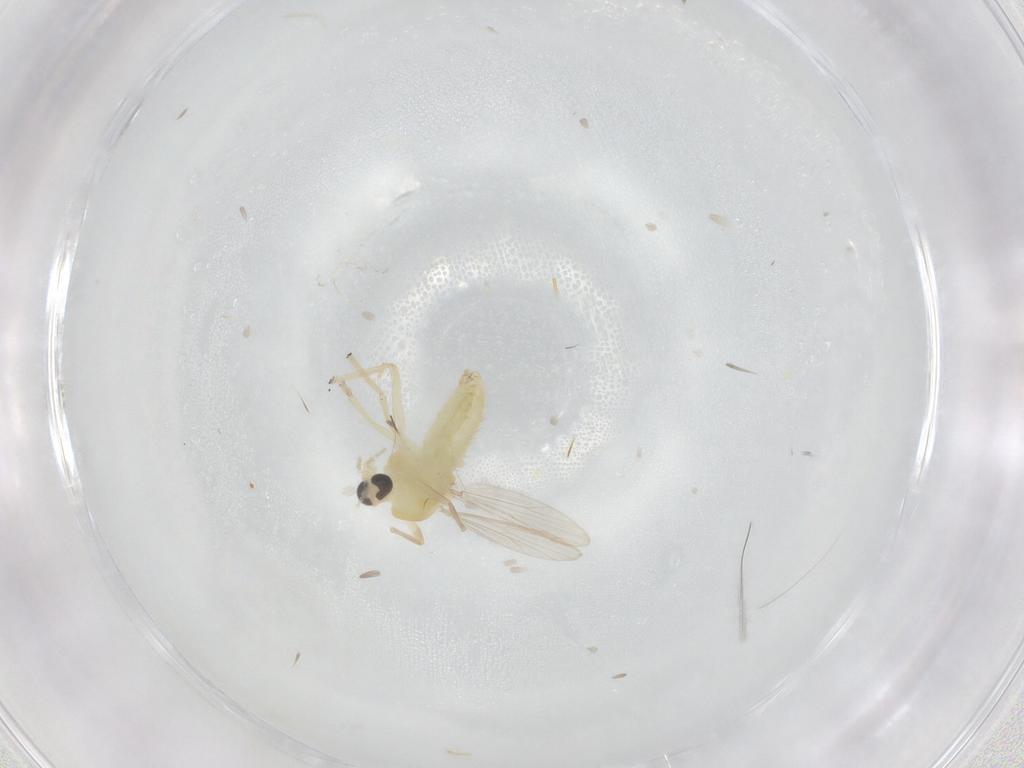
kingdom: Animalia
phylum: Arthropoda
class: Insecta
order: Diptera
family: Chironomidae
